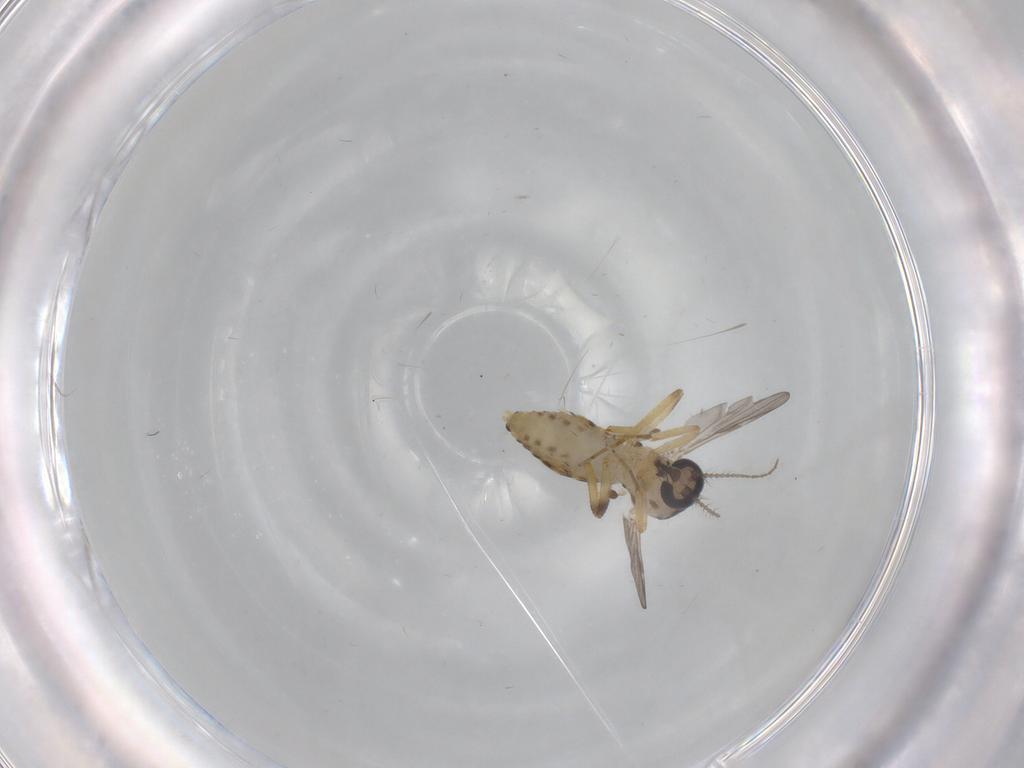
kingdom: Animalia
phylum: Arthropoda
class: Insecta
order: Diptera
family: Ceratopogonidae
